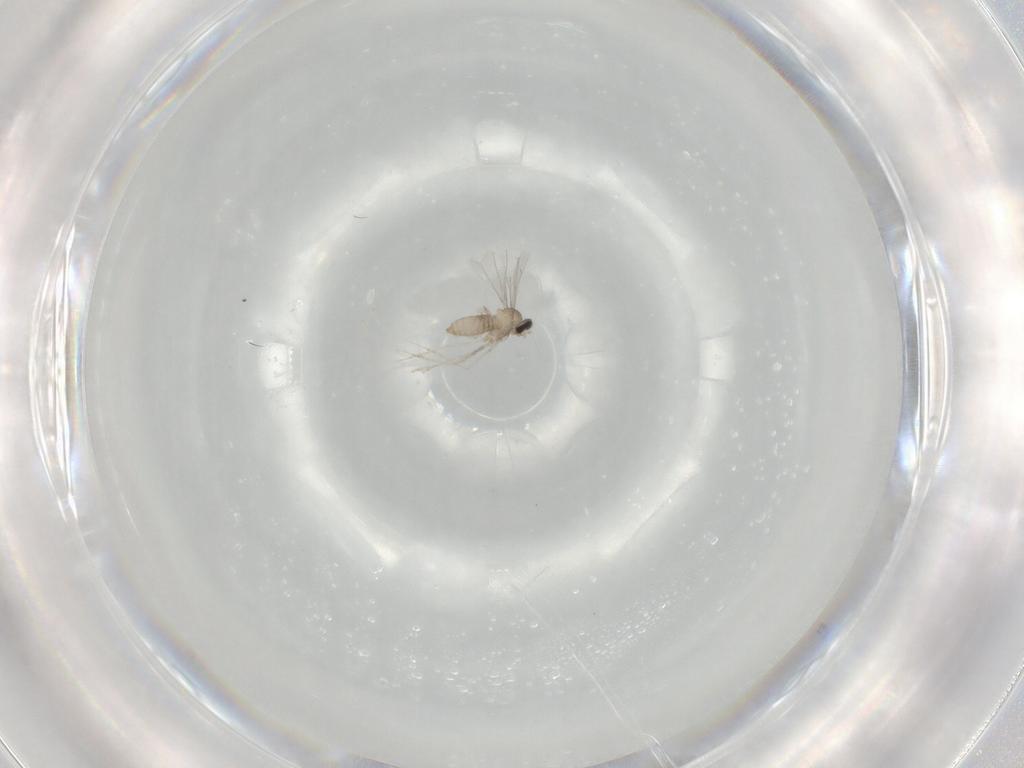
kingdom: Animalia
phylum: Arthropoda
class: Insecta
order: Diptera
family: Cecidomyiidae
